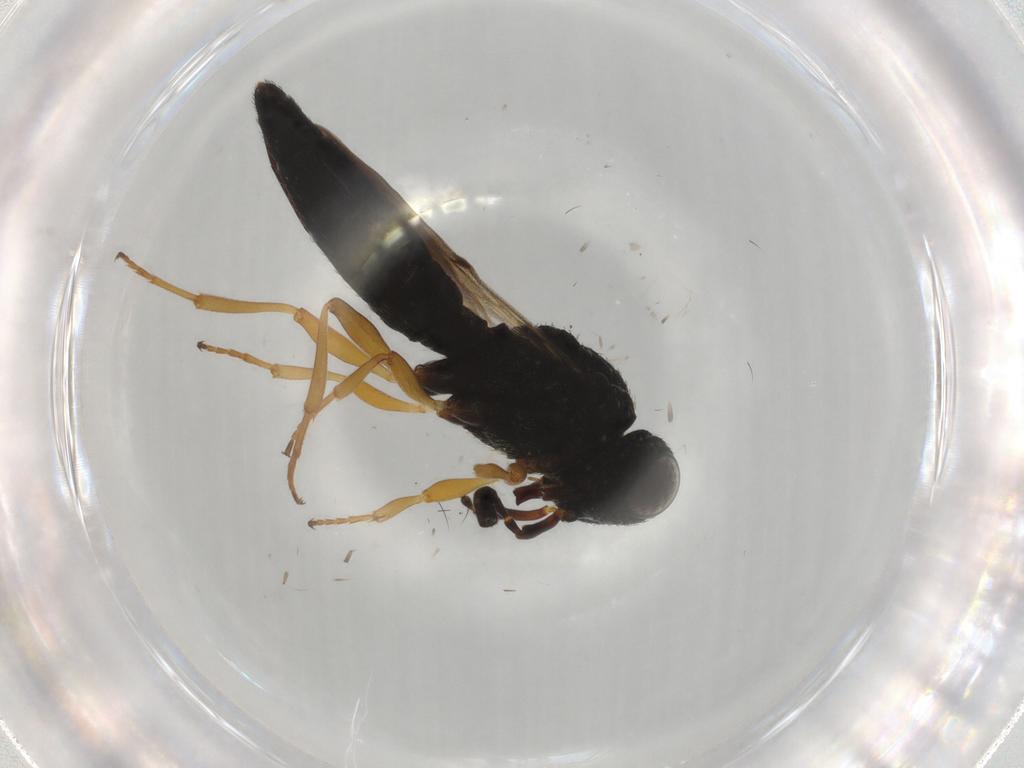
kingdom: Animalia
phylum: Arthropoda
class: Insecta
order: Hymenoptera
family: Scelionidae
